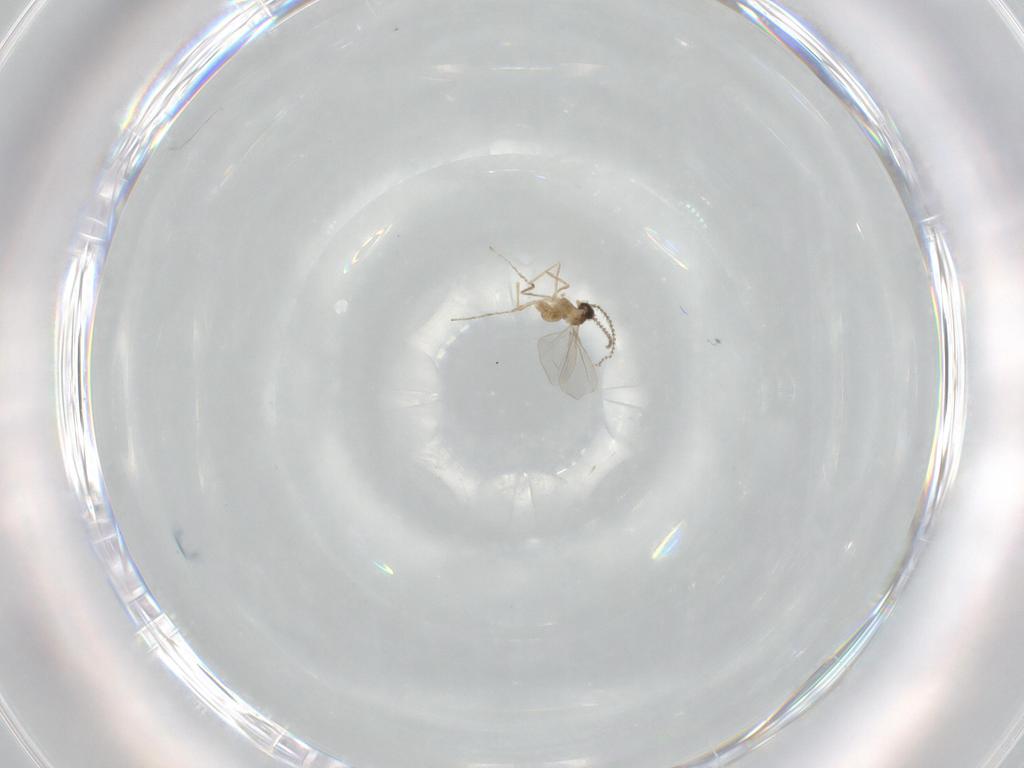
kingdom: Animalia
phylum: Arthropoda
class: Insecta
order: Diptera
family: Cecidomyiidae
